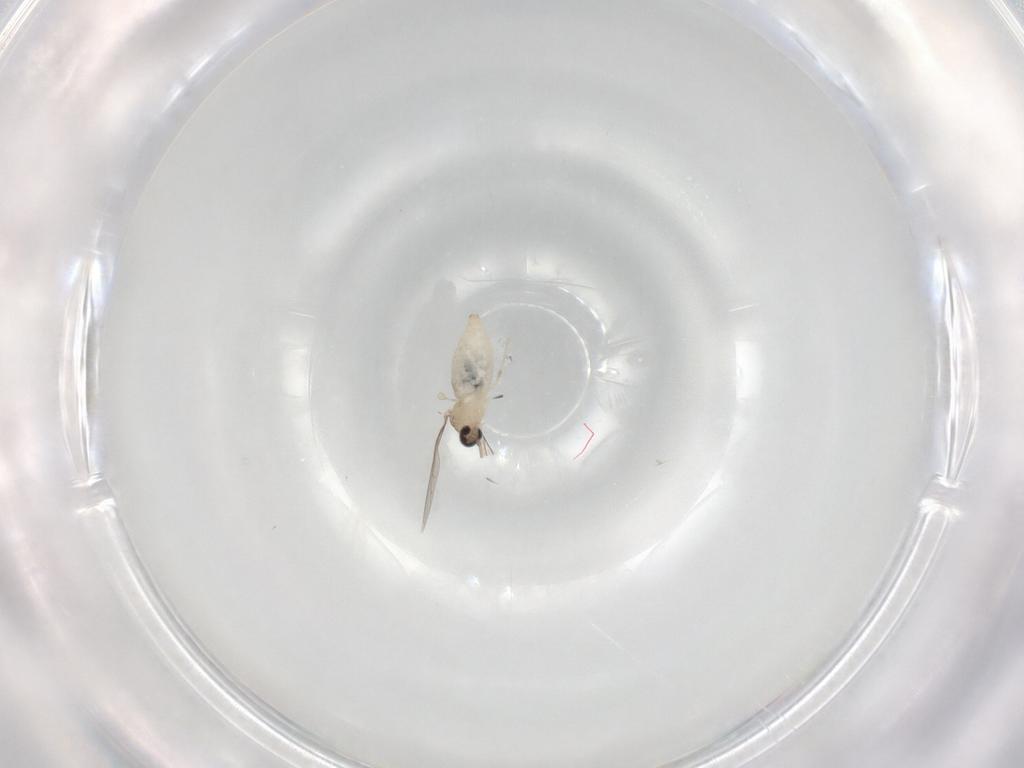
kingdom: Animalia
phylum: Arthropoda
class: Insecta
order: Diptera
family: Cecidomyiidae
